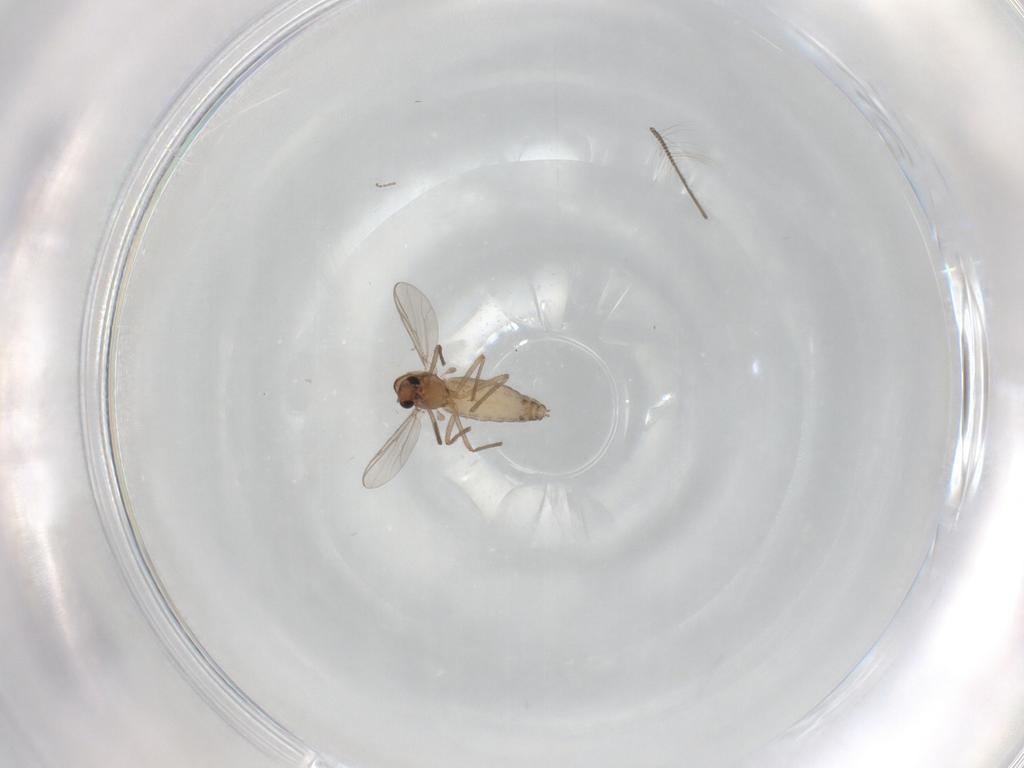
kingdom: Animalia
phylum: Arthropoda
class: Insecta
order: Diptera
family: Chironomidae
